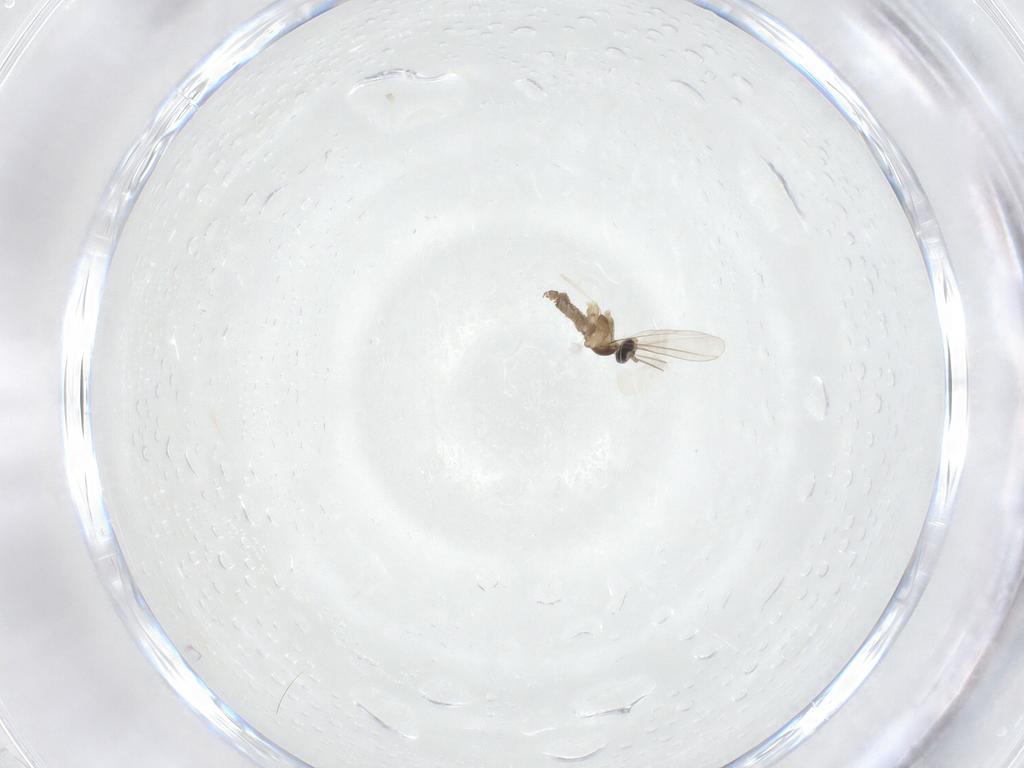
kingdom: Animalia
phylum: Arthropoda
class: Insecta
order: Diptera
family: Cecidomyiidae
